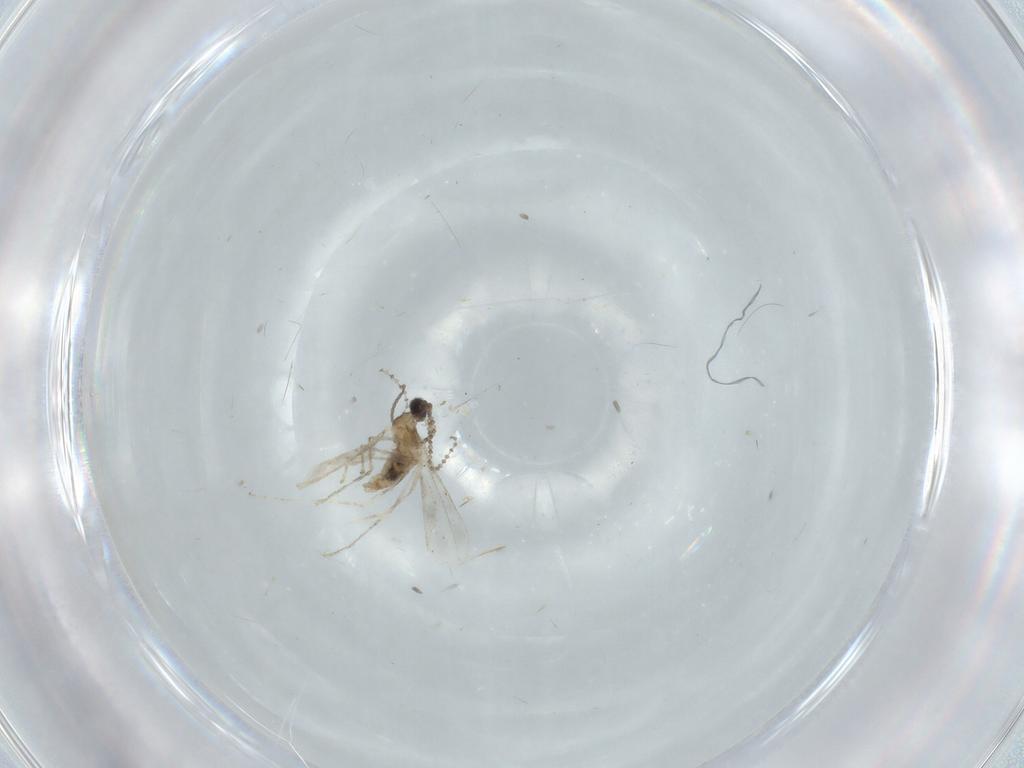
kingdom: Animalia
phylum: Arthropoda
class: Insecta
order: Diptera
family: Cecidomyiidae
